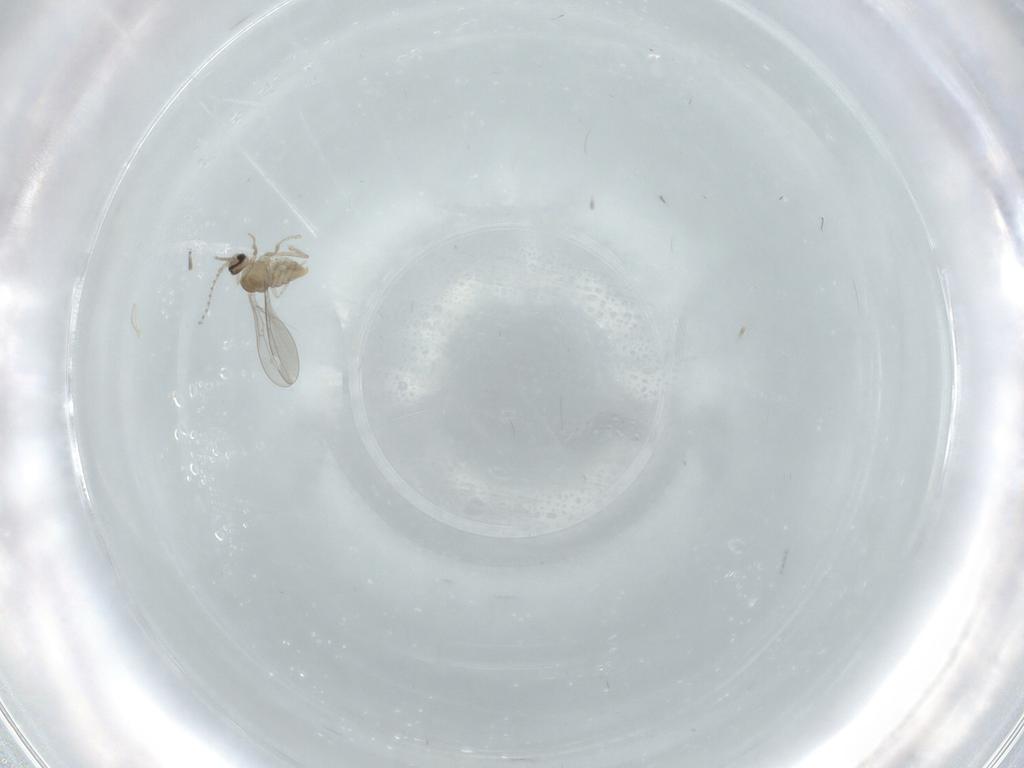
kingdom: Animalia
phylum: Arthropoda
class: Insecta
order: Diptera
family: Cecidomyiidae
